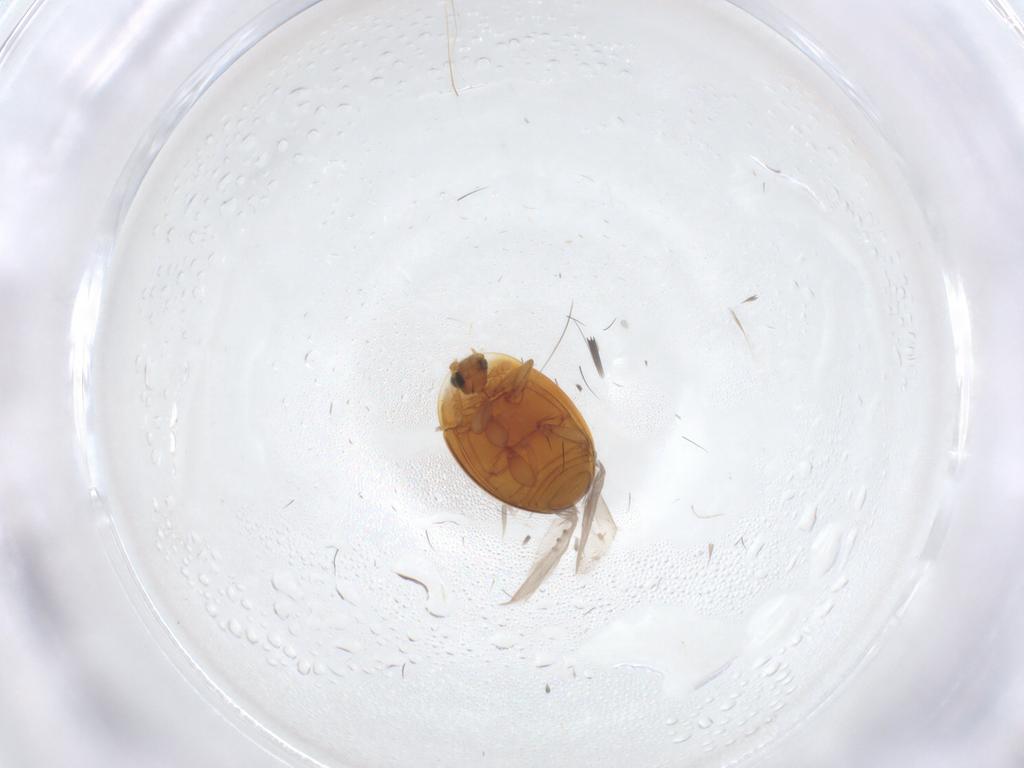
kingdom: Animalia
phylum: Arthropoda
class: Insecta
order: Coleoptera
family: Corylophidae
